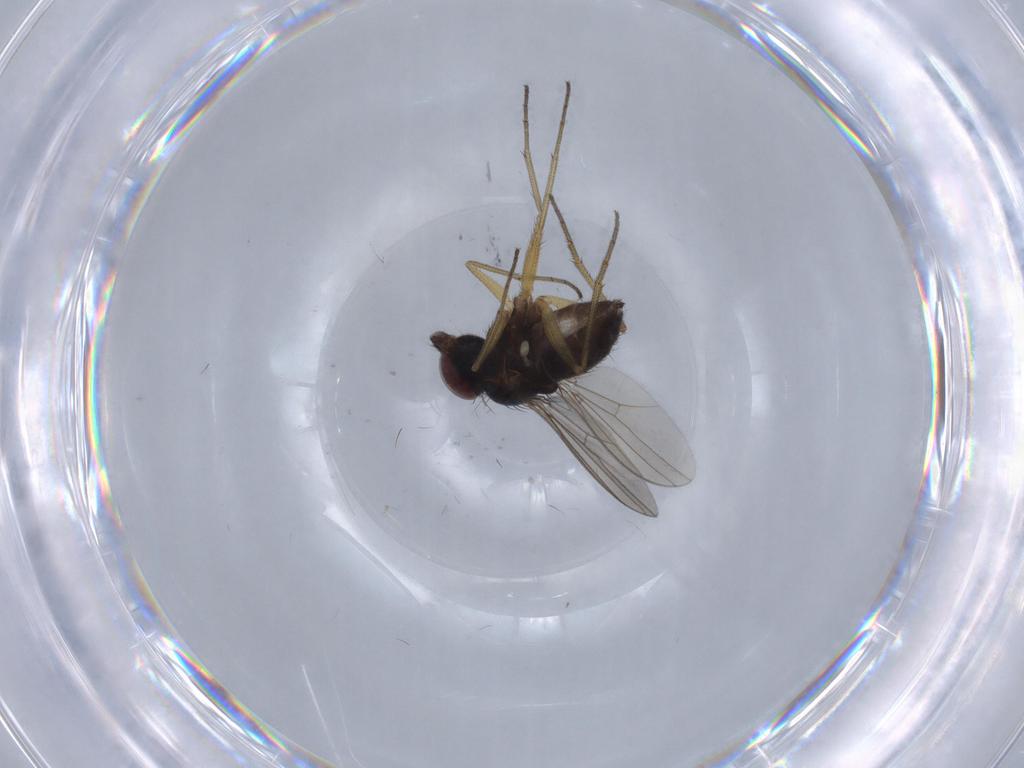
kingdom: Animalia
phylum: Arthropoda
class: Insecta
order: Diptera
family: Dolichopodidae
